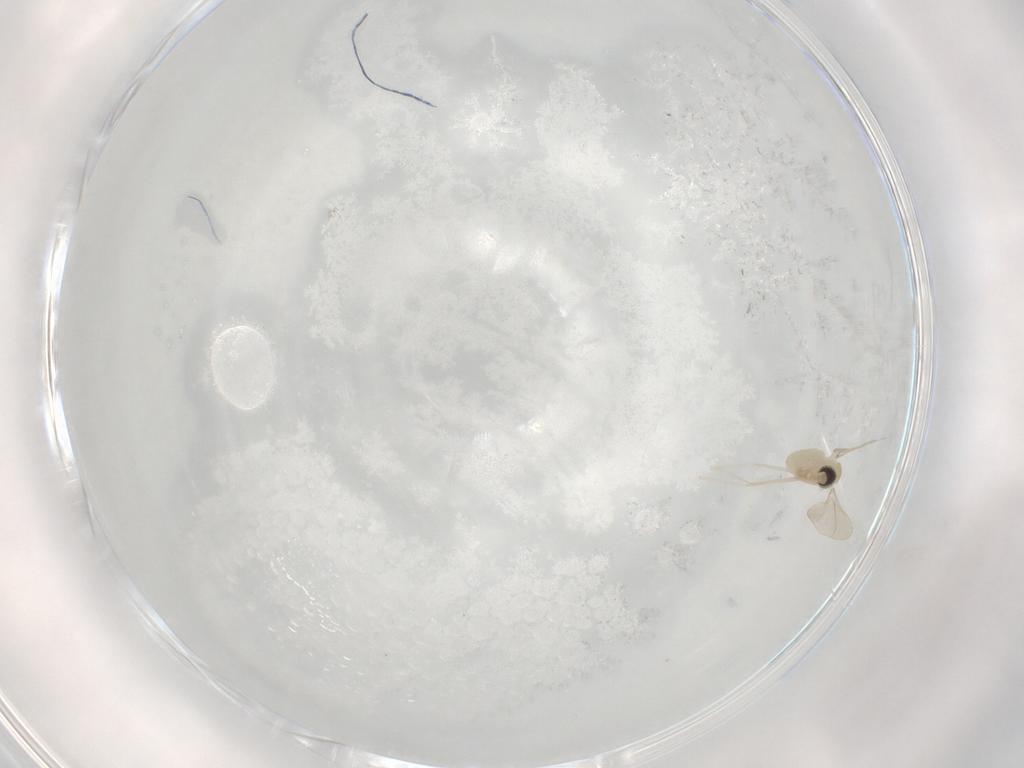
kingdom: Animalia
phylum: Arthropoda
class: Insecta
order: Diptera
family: Cecidomyiidae
